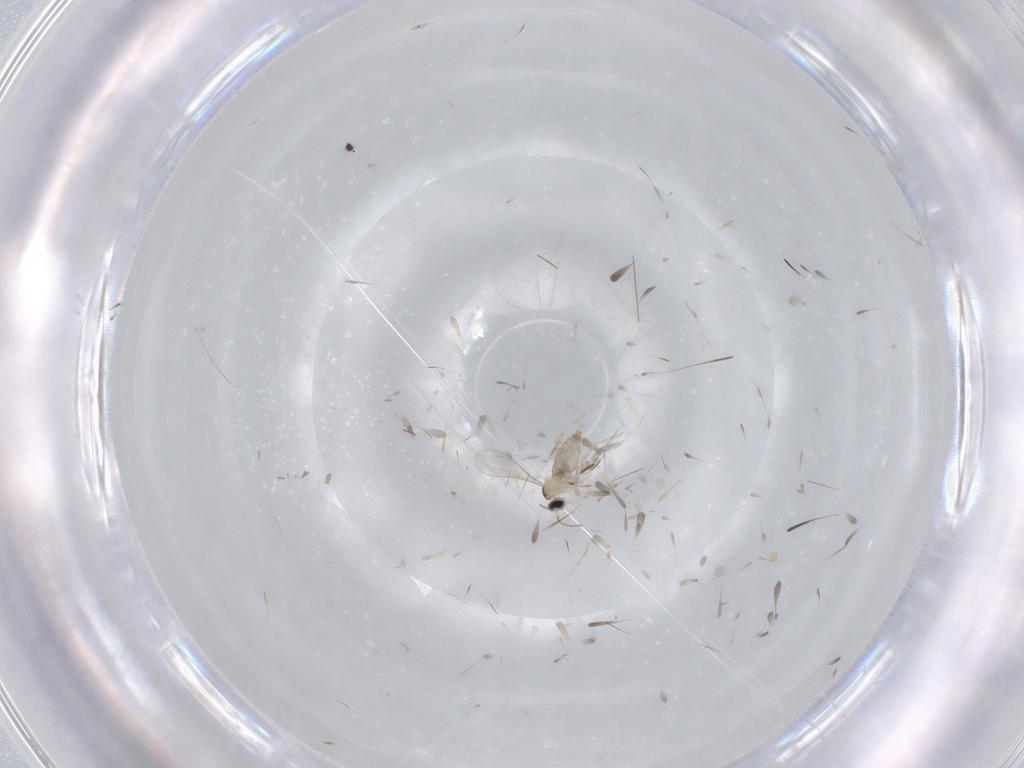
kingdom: Animalia
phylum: Arthropoda
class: Insecta
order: Diptera
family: Cecidomyiidae
